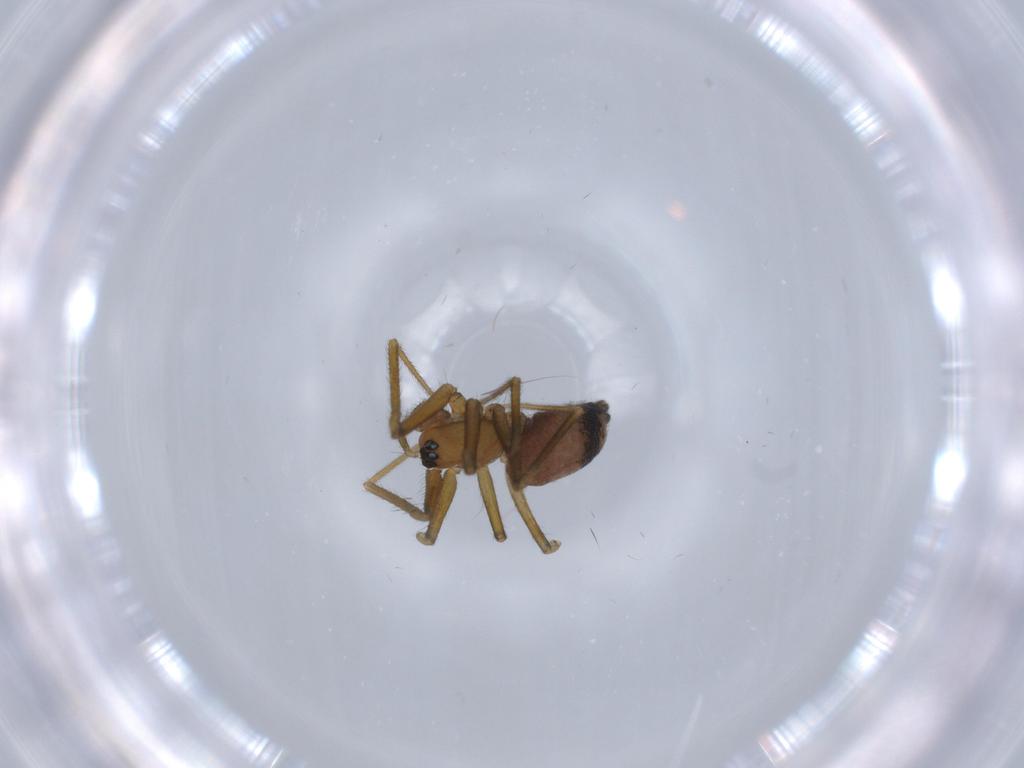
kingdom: Animalia
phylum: Arthropoda
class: Arachnida
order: Araneae
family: Linyphiidae
